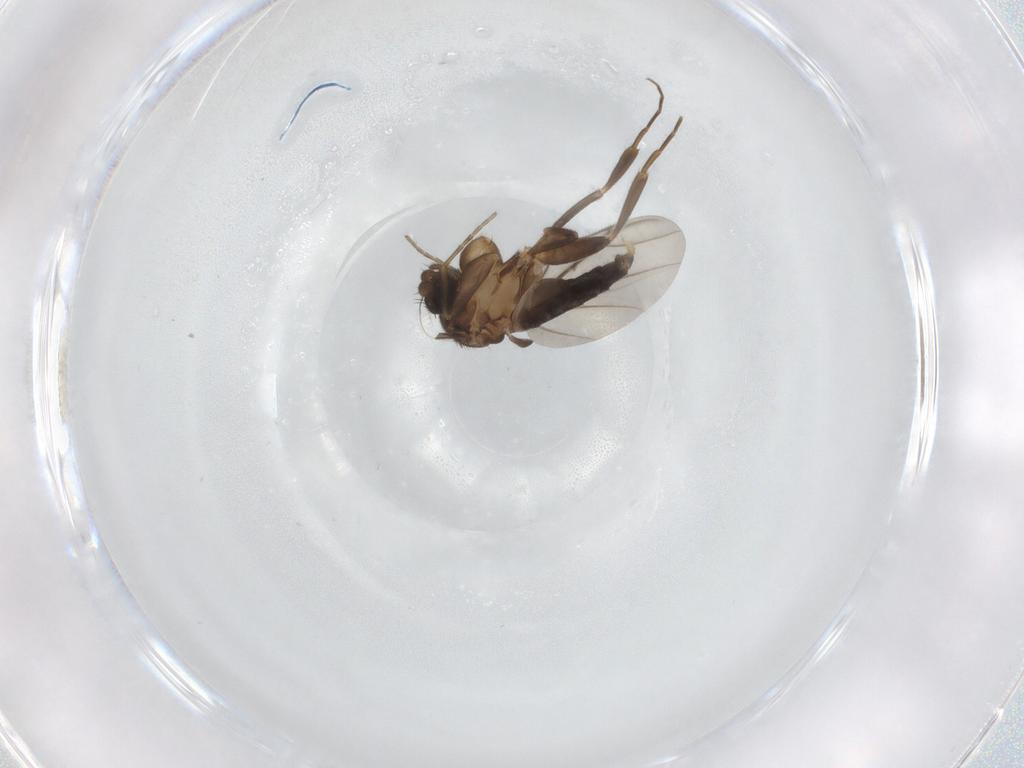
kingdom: Animalia
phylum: Arthropoda
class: Insecta
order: Diptera
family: Phoridae
